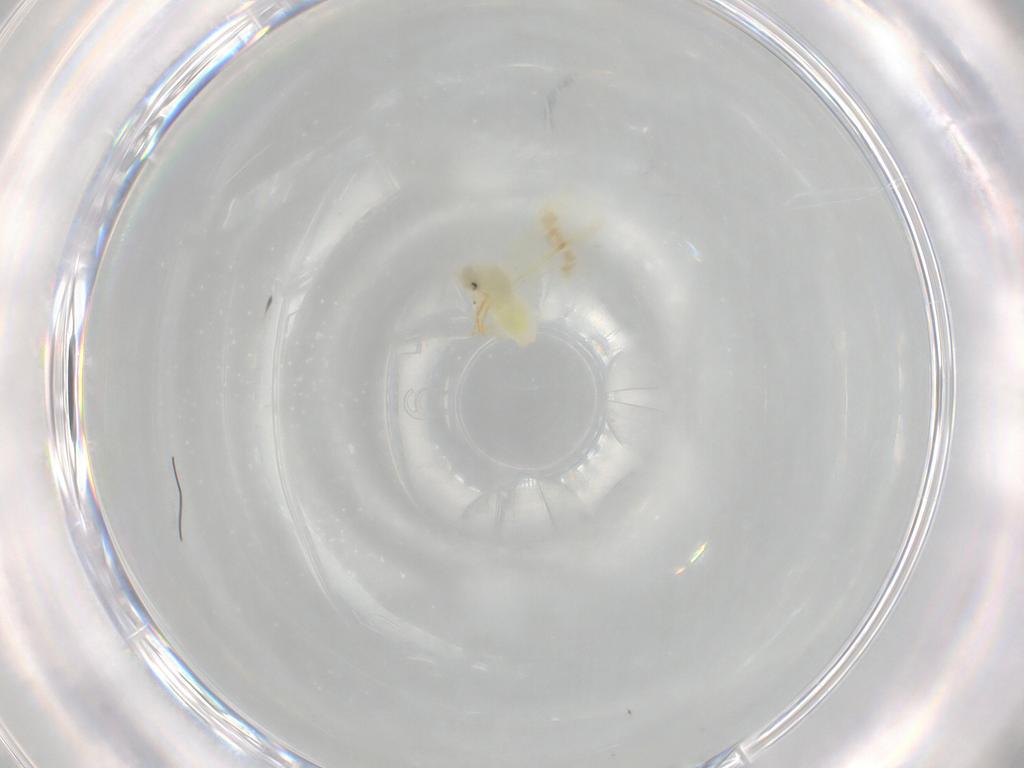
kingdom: Animalia
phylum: Arthropoda
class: Insecta
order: Hemiptera
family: Aleyrodidae
